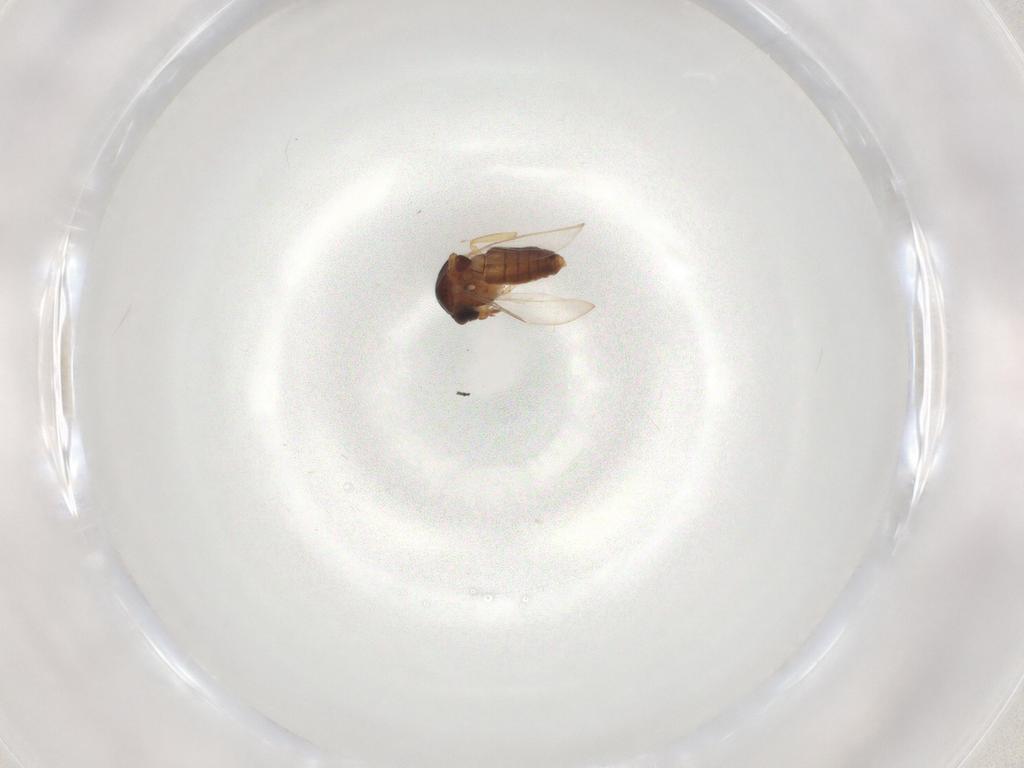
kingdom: Animalia
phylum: Arthropoda
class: Insecta
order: Diptera
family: Ceratopogonidae
